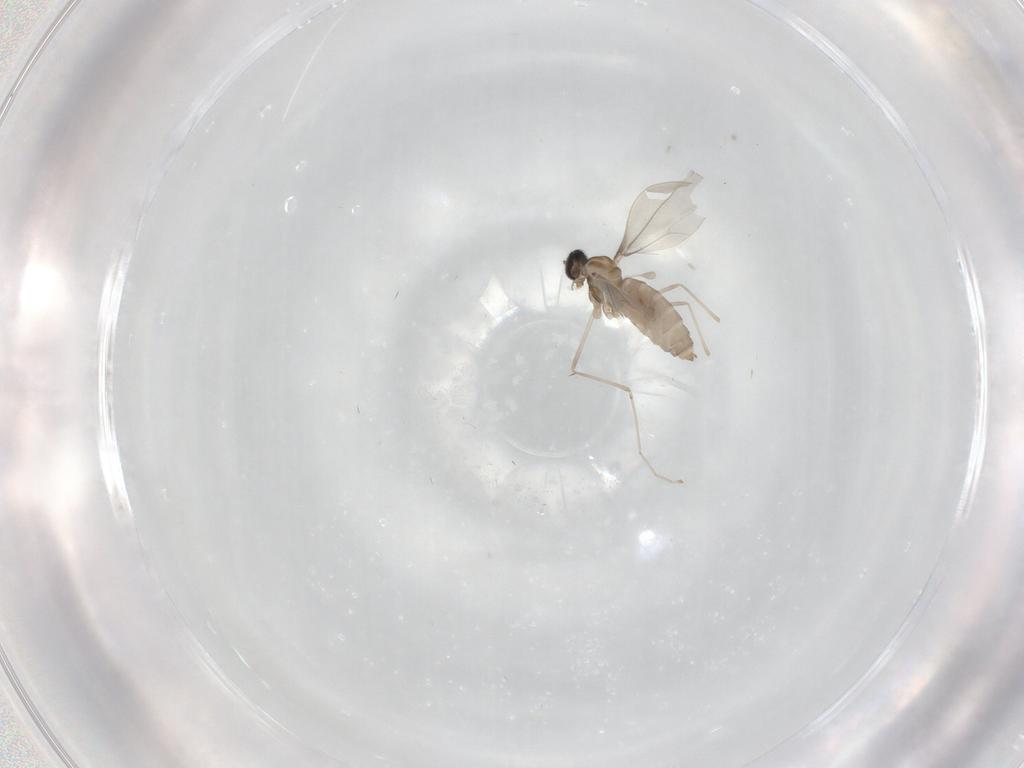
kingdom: Animalia
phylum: Arthropoda
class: Insecta
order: Diptera
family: Cecidomyiidae
